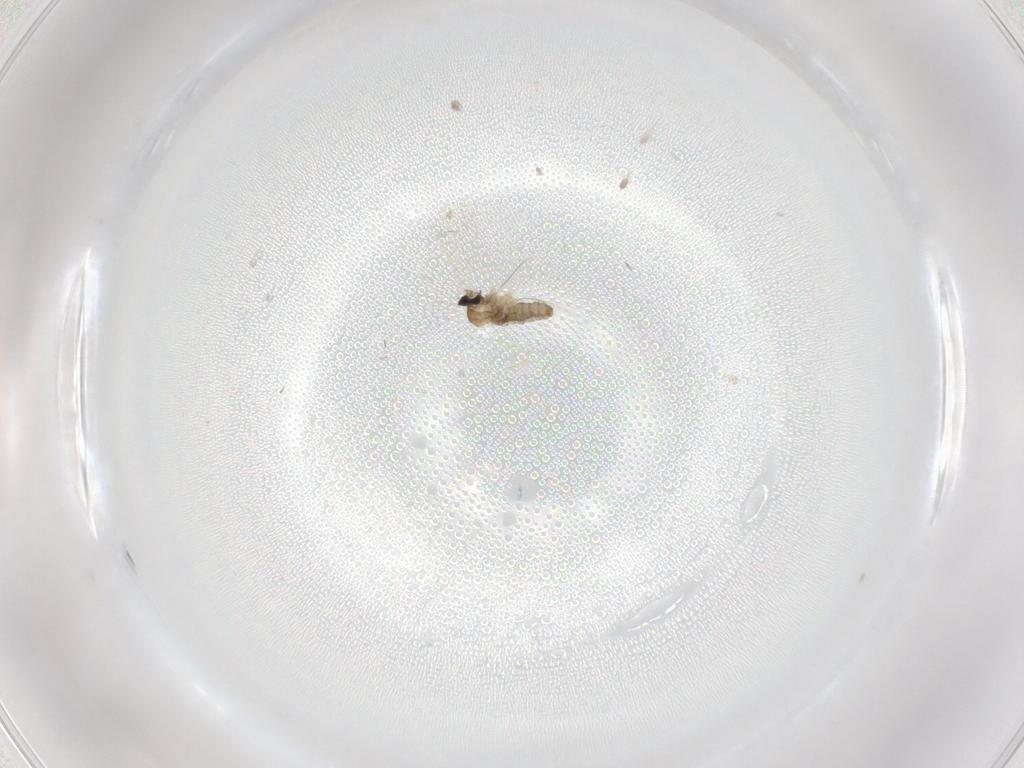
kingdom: Animalia
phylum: Arthropoda
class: Insecta
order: Diptera
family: Cecidomyiidae
